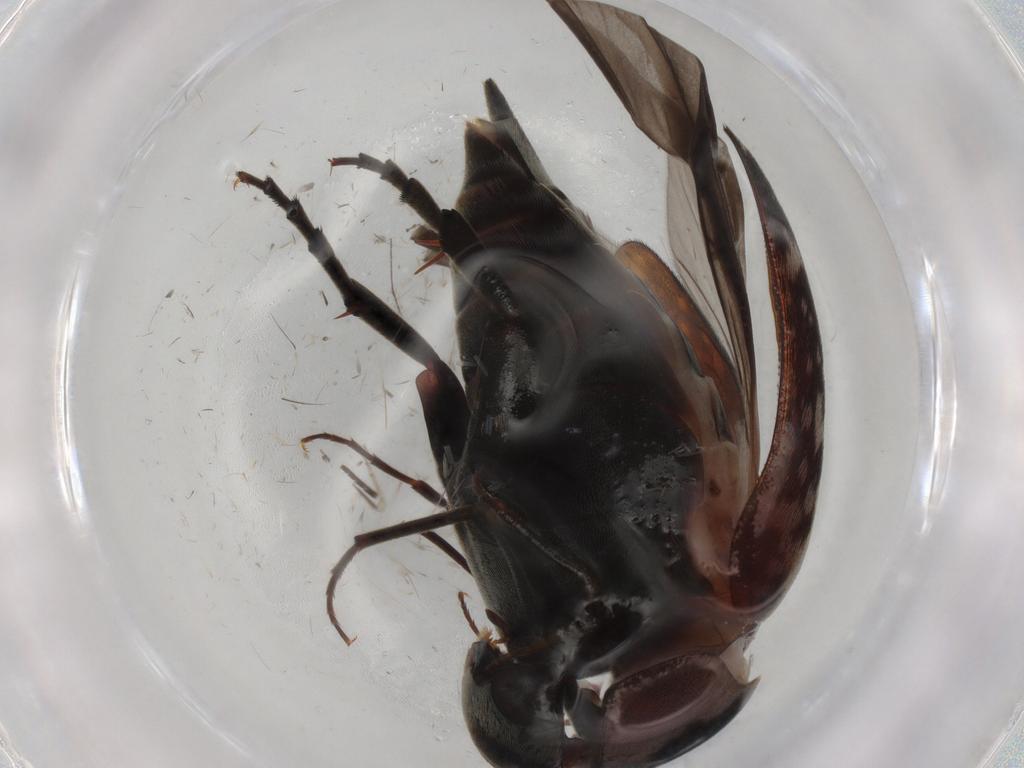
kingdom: Animalia
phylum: Arthropoda
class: Insecta
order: Coleoptera
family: Mordellidae
